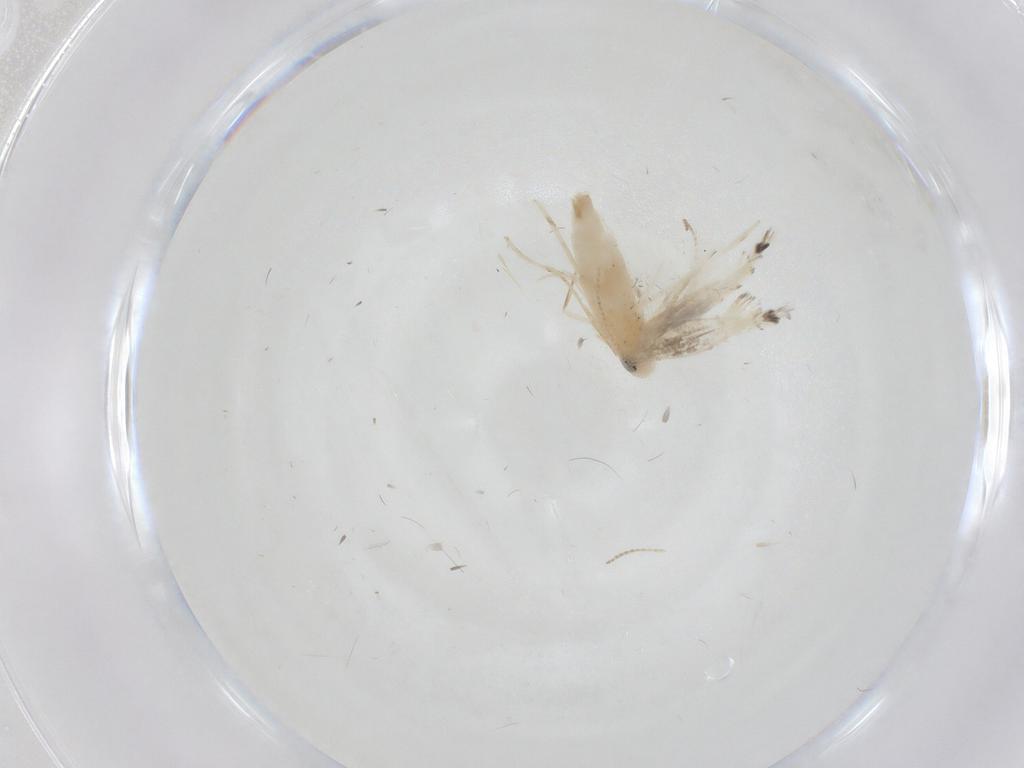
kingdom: Animalia
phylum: Arthropoda
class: Insecta
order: Lepidoptera
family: Gracillariidae
